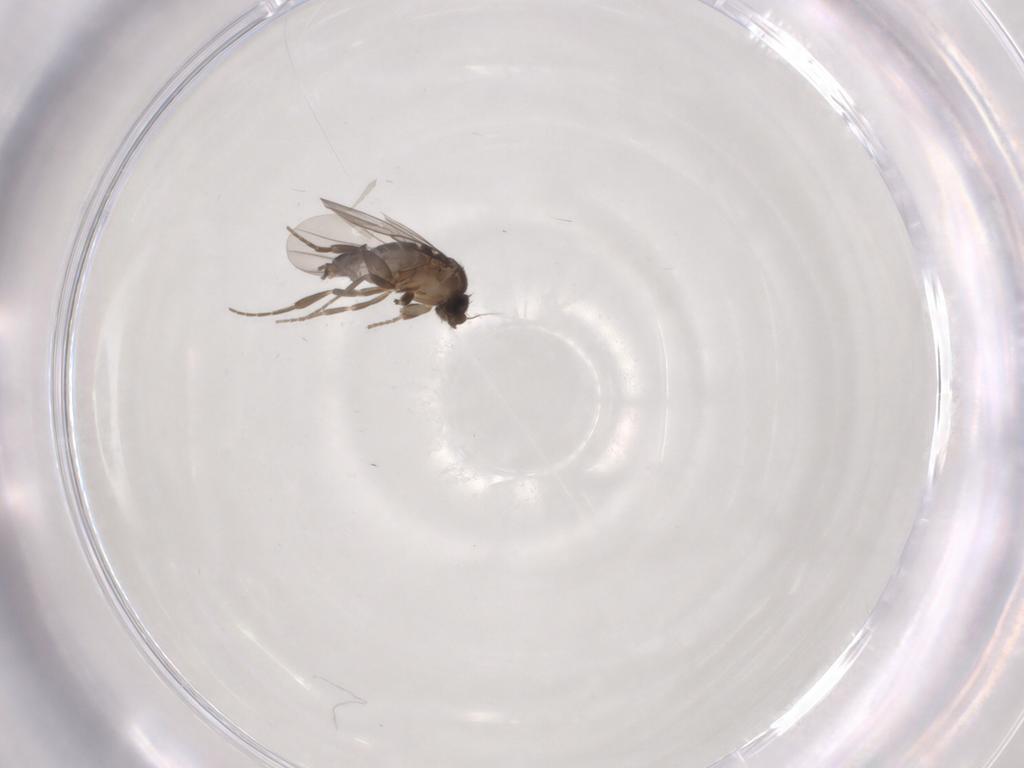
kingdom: Animalia
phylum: Arthropoda
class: Insecta
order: Diptera
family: Phoridae
